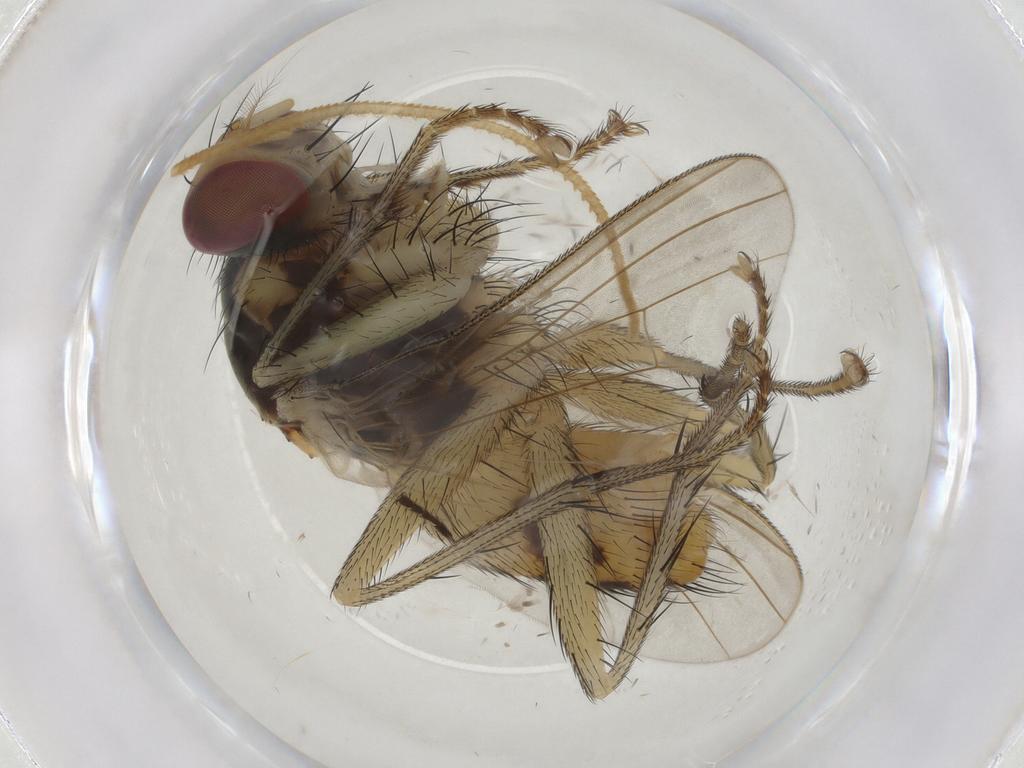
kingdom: Animalia
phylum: Arthropoda
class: Insecta
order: Diptera
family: Muscidae
